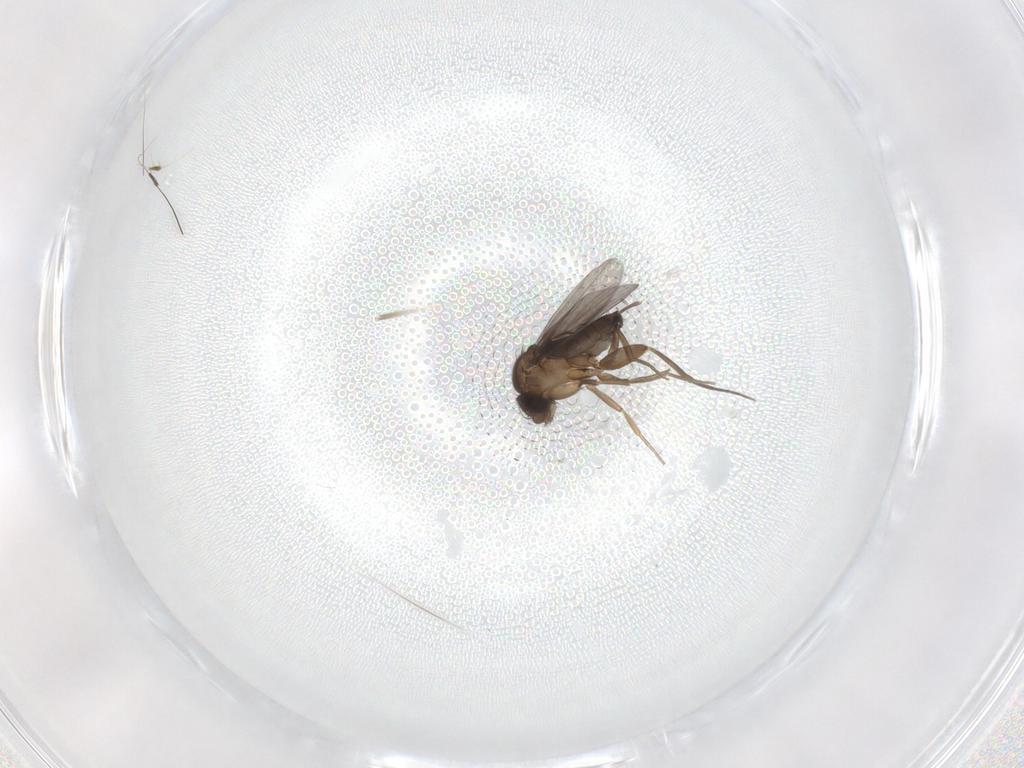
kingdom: Animalia
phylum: Arthropoda
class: Insecta
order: Diptera
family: Phoridae
